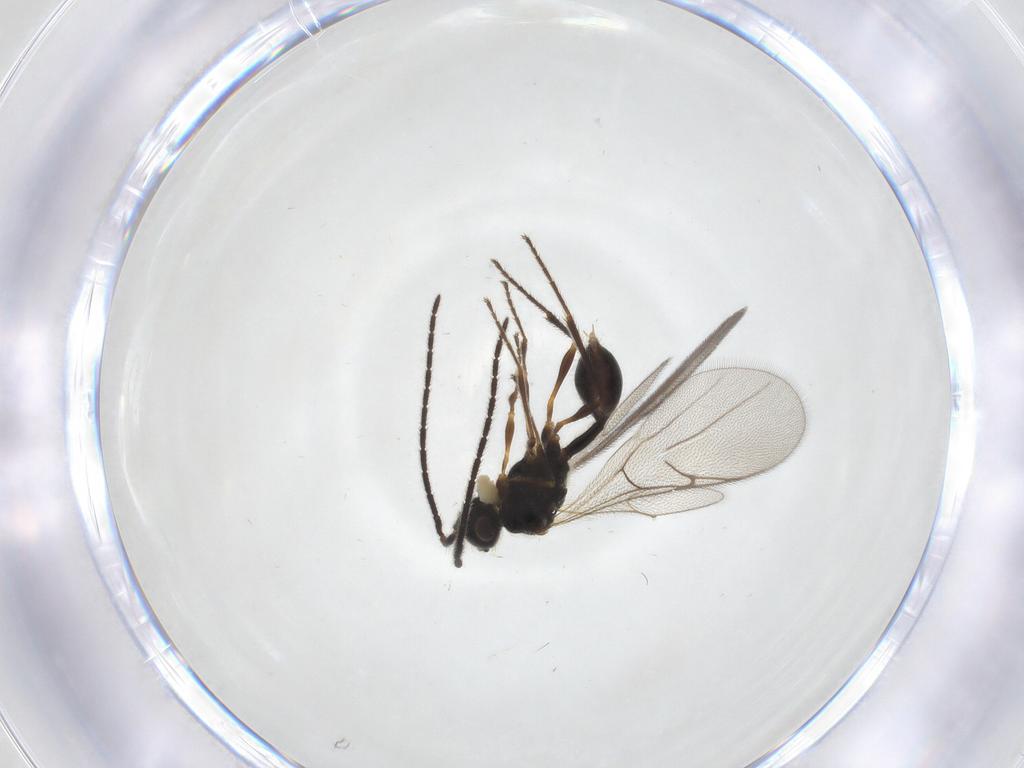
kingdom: Animalia
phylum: Arthropoda
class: Insecta
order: Hymenoptera
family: Diapriidae
